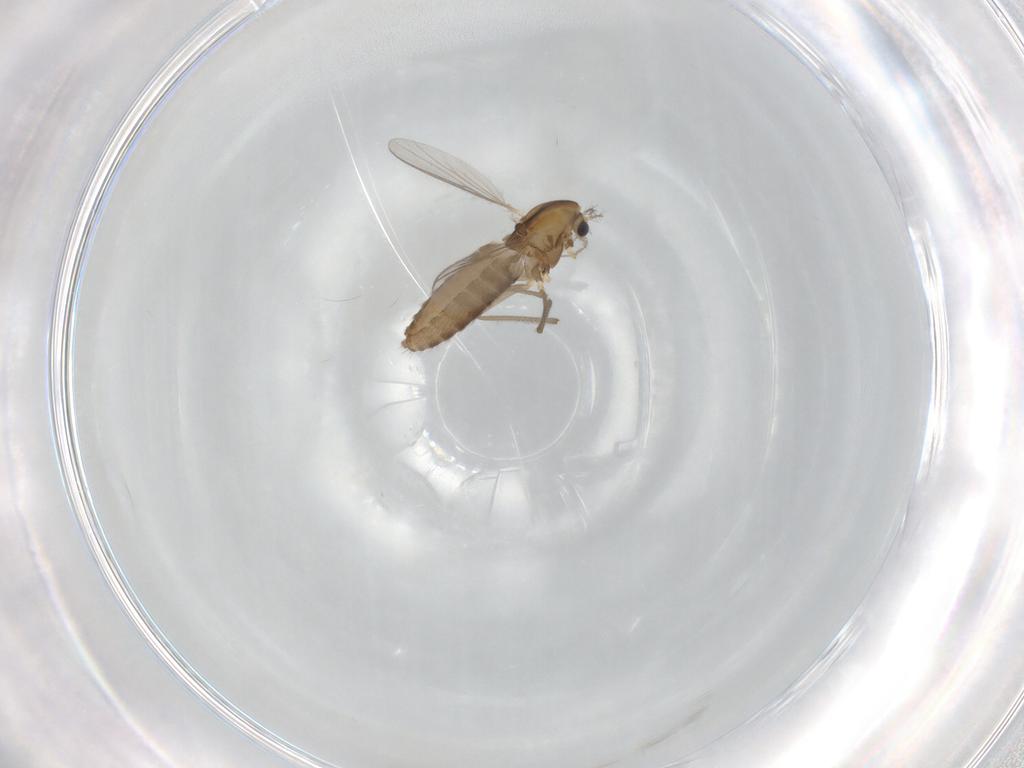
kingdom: Animalia
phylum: Arthropoda
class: Insecta
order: Diptera
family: Chironomidae
